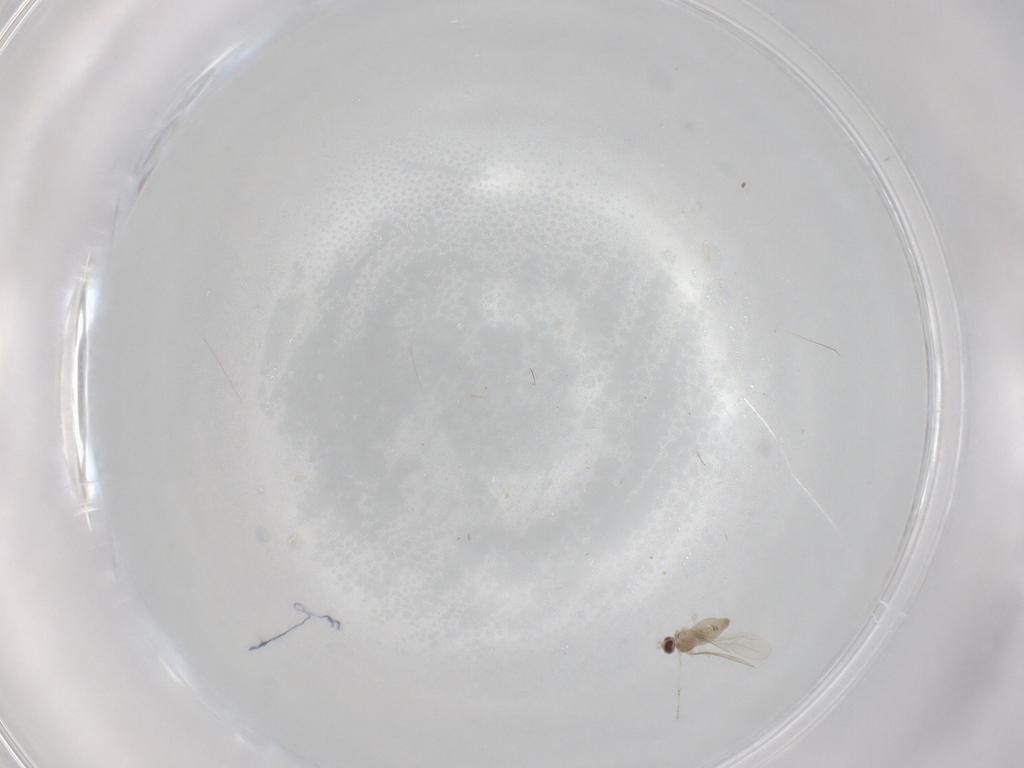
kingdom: Animalia
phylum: Arthropoda
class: Insecta
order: Diptera
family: Cecidomyiidae
